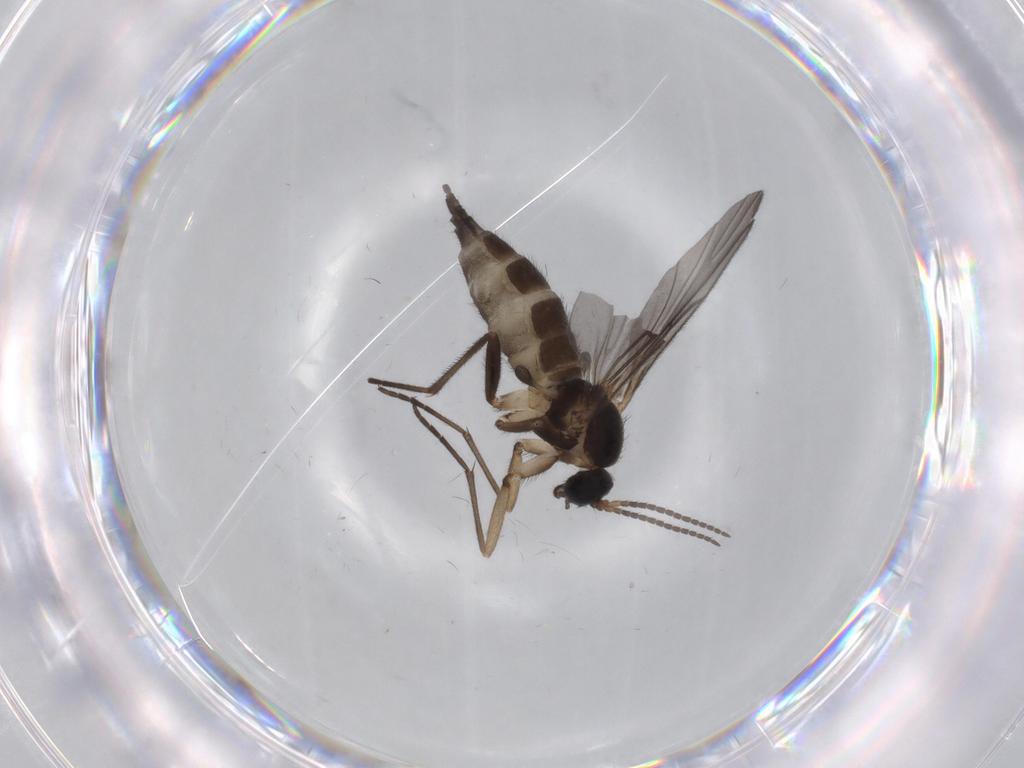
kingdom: Animalia
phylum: Arthropoda
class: Insecta
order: Diptera
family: Sciaridae
